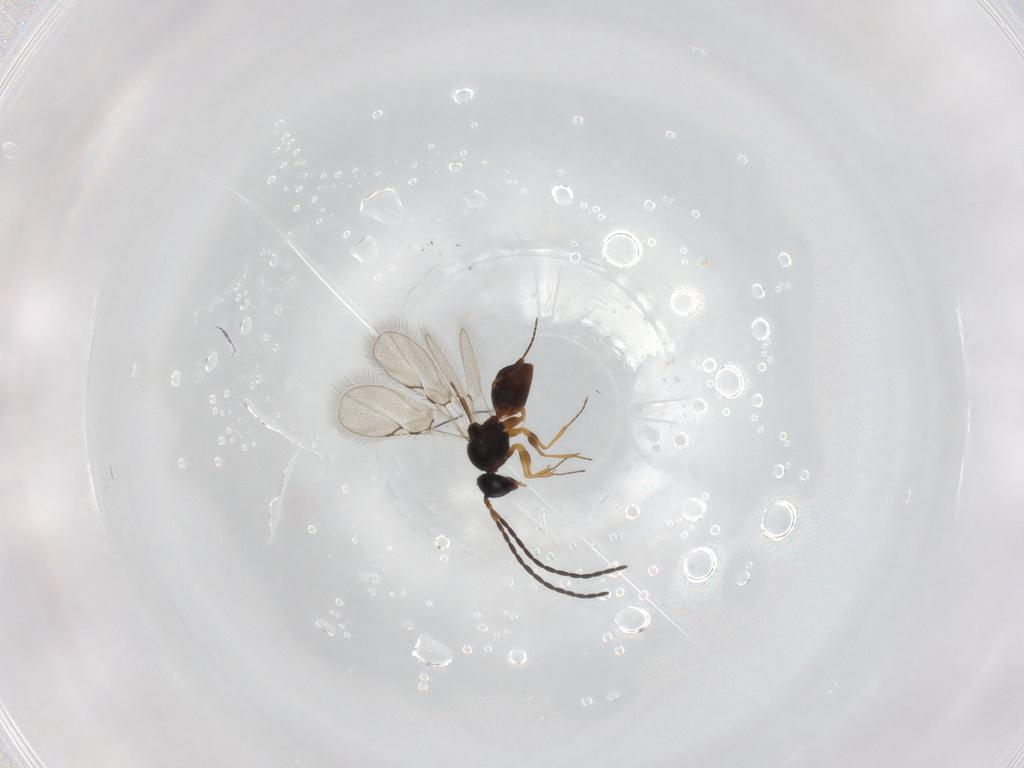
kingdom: Animalia
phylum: Arthropoda
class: Insecta
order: Hymenoptera
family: Figitidae
